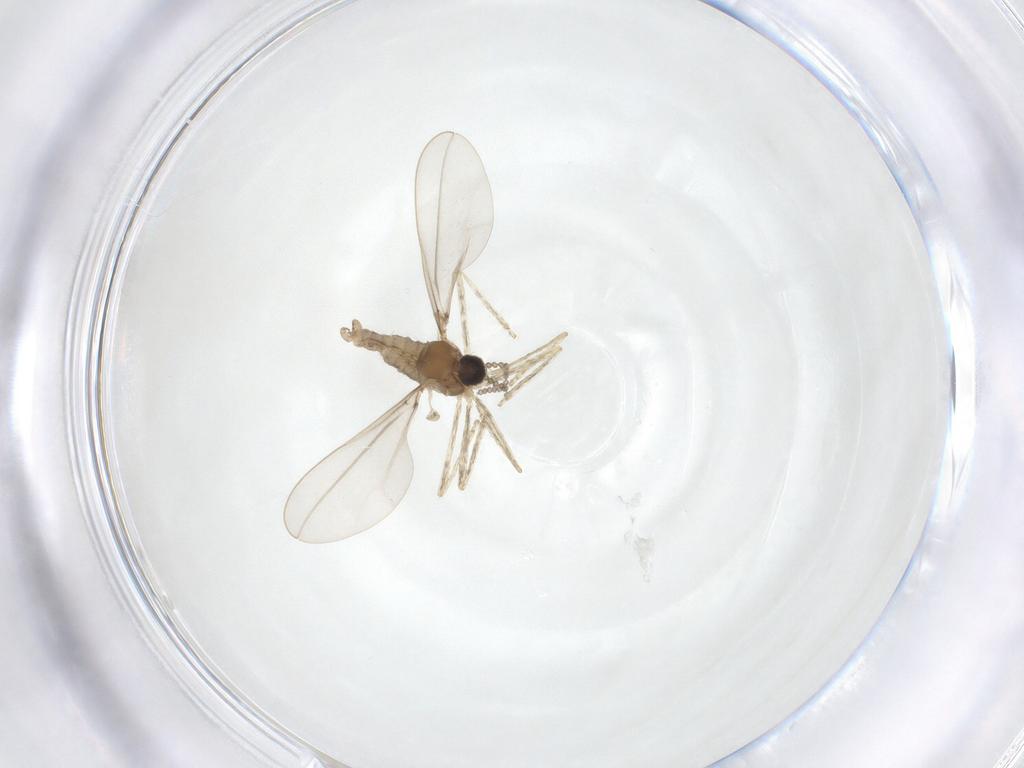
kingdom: Animalia
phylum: Arthropoda
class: Insecta
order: Diptera
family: Cecidomyiidae
